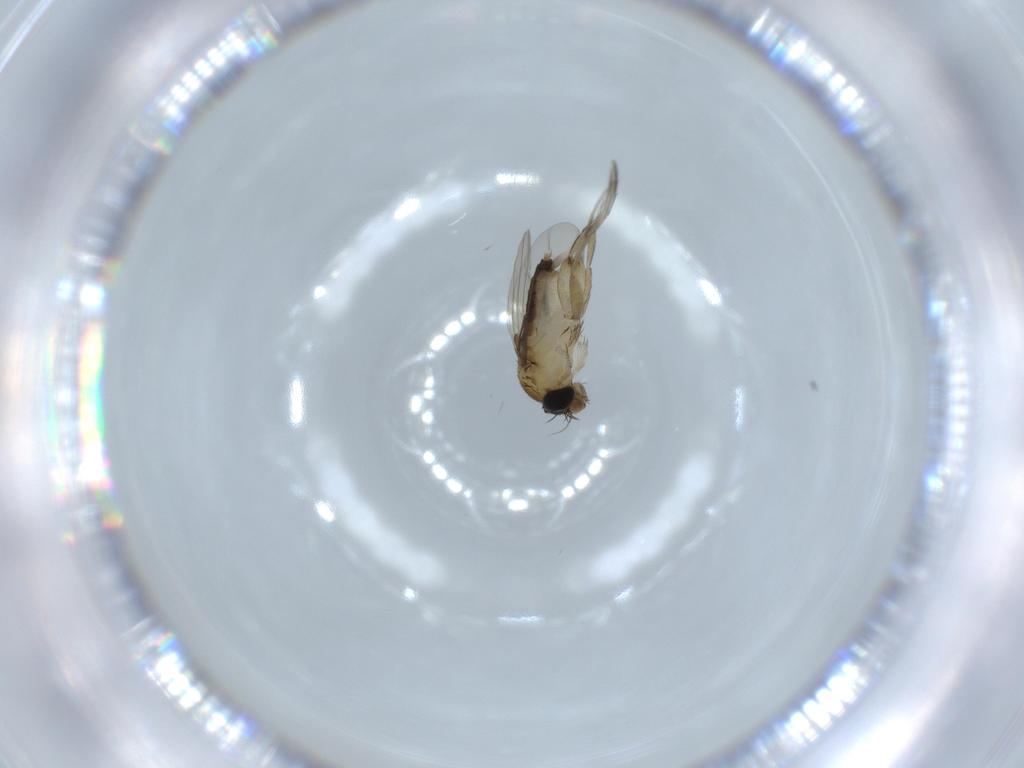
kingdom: Animalia
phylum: Arthropoda
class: Insecta
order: Diptera
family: Phoridae
